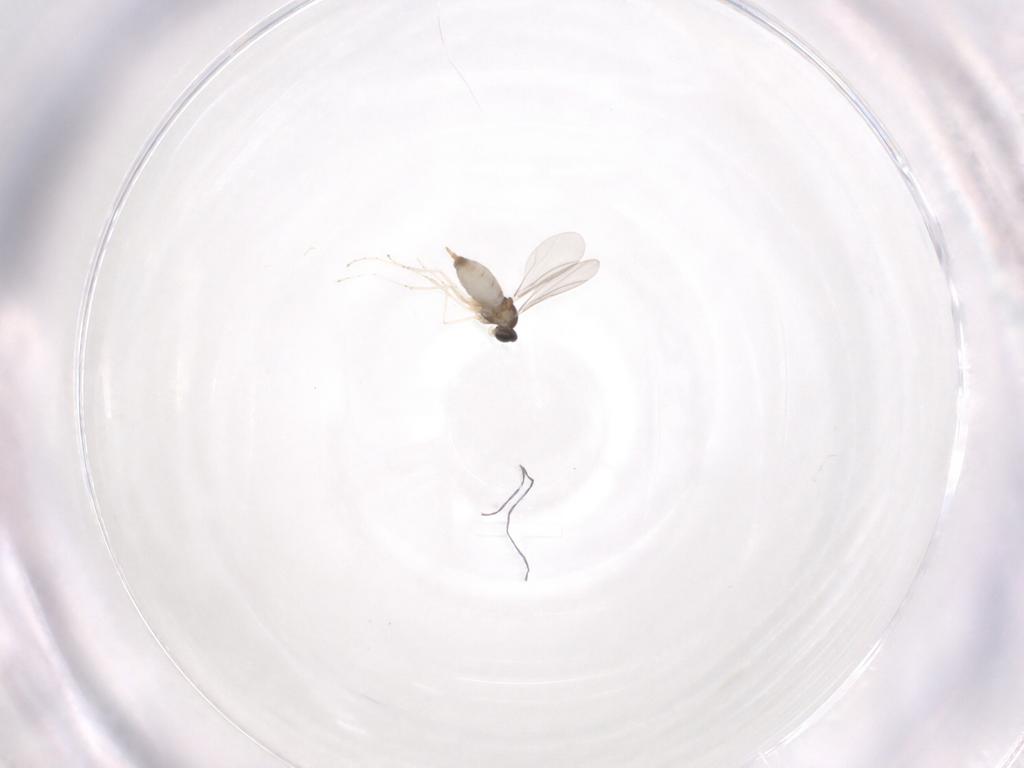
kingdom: Animalia
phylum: Arthropoda
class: Insecta
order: Diptera
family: Cecidomyiidae
